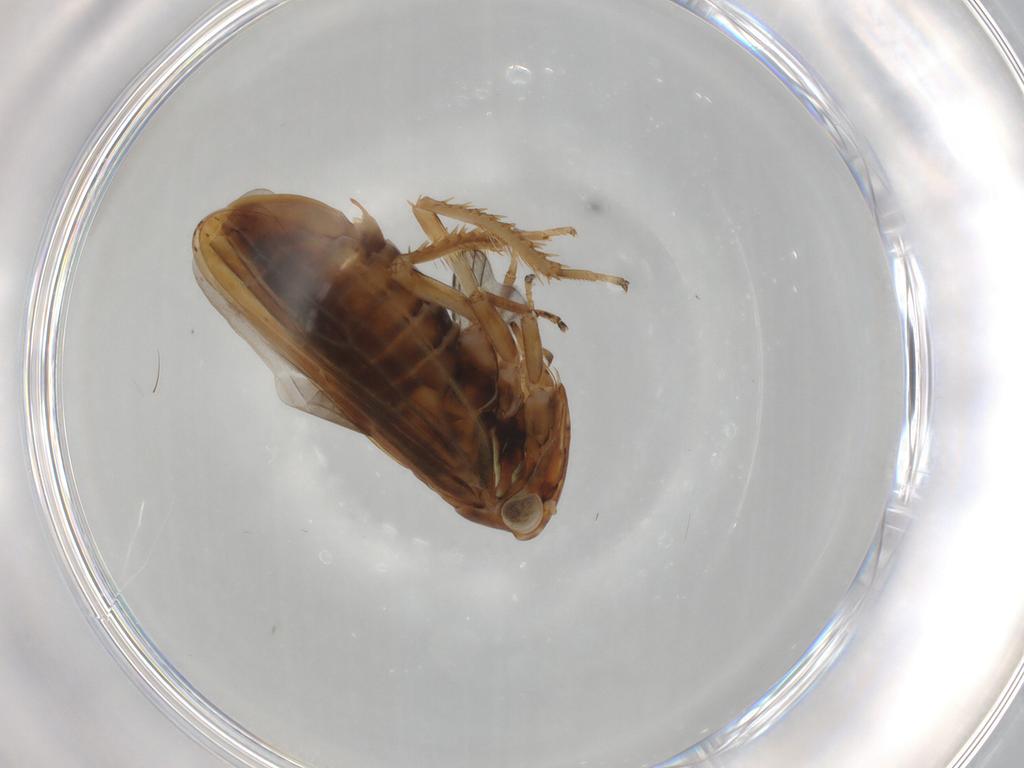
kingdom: Animalia
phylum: Arthropoda
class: Insecta
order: Hemiptera
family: Cicadellidae
